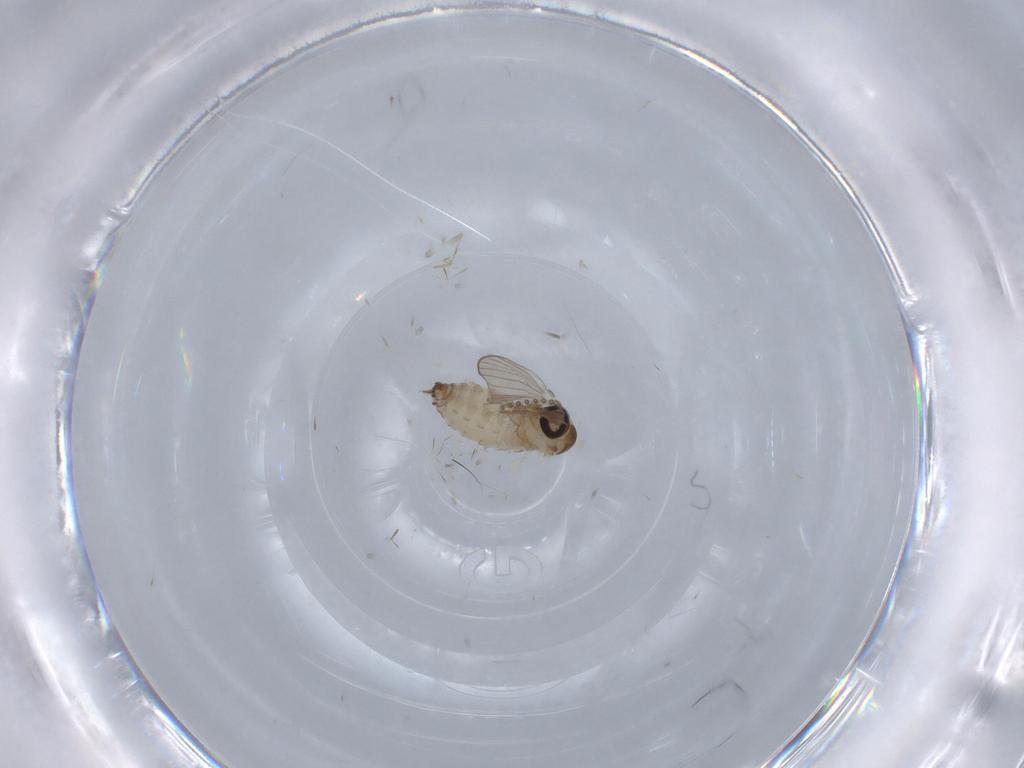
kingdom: Animalia
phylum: Arthropoda
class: Insecta
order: Diptera
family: Psychodidae
